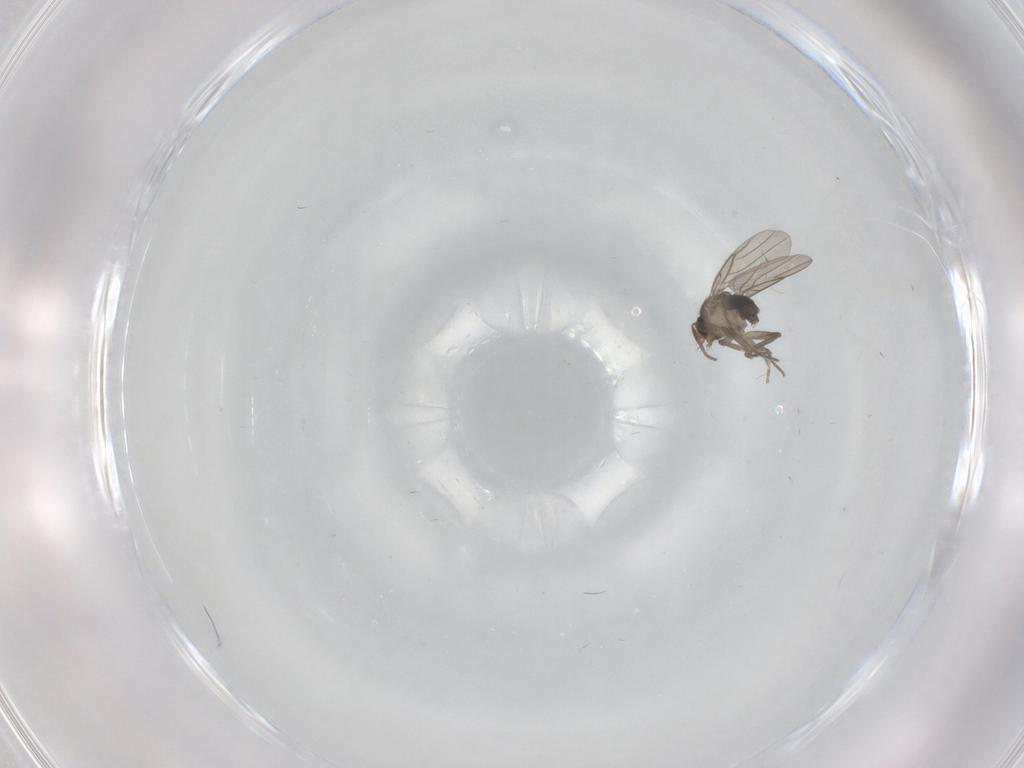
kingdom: Animalia
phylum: Arthropoda
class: Insecta
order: Diptera
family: Phoridae
